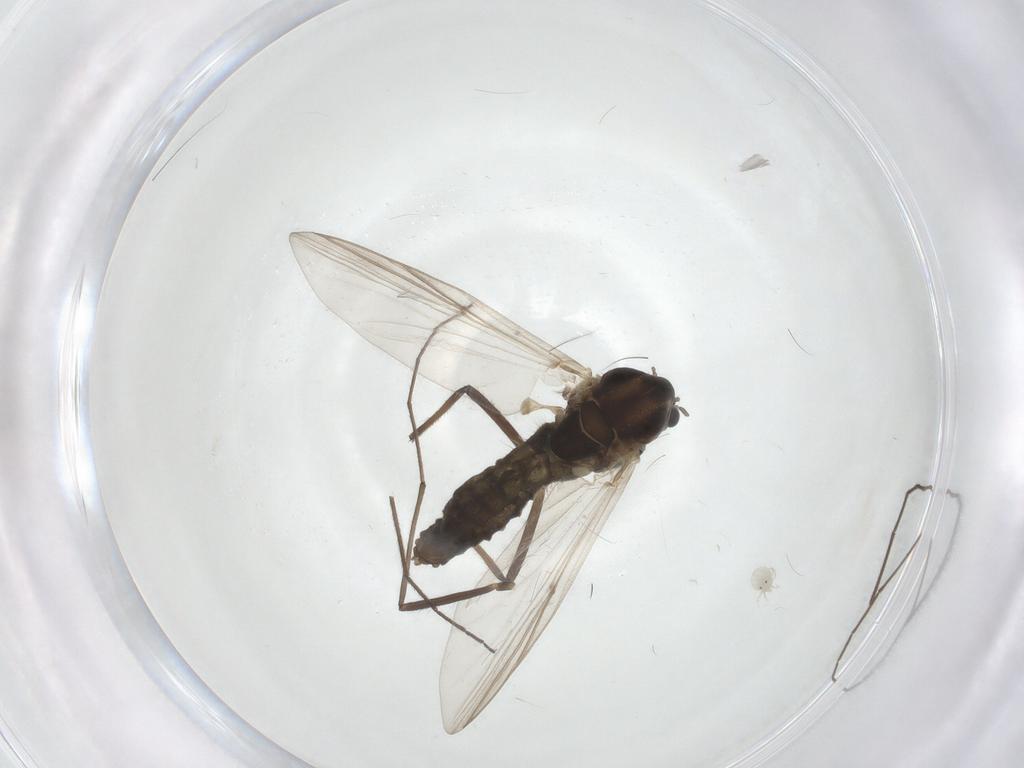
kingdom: Animalia
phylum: Arthropoda
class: Insecta
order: Diptera
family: Chironomidae
